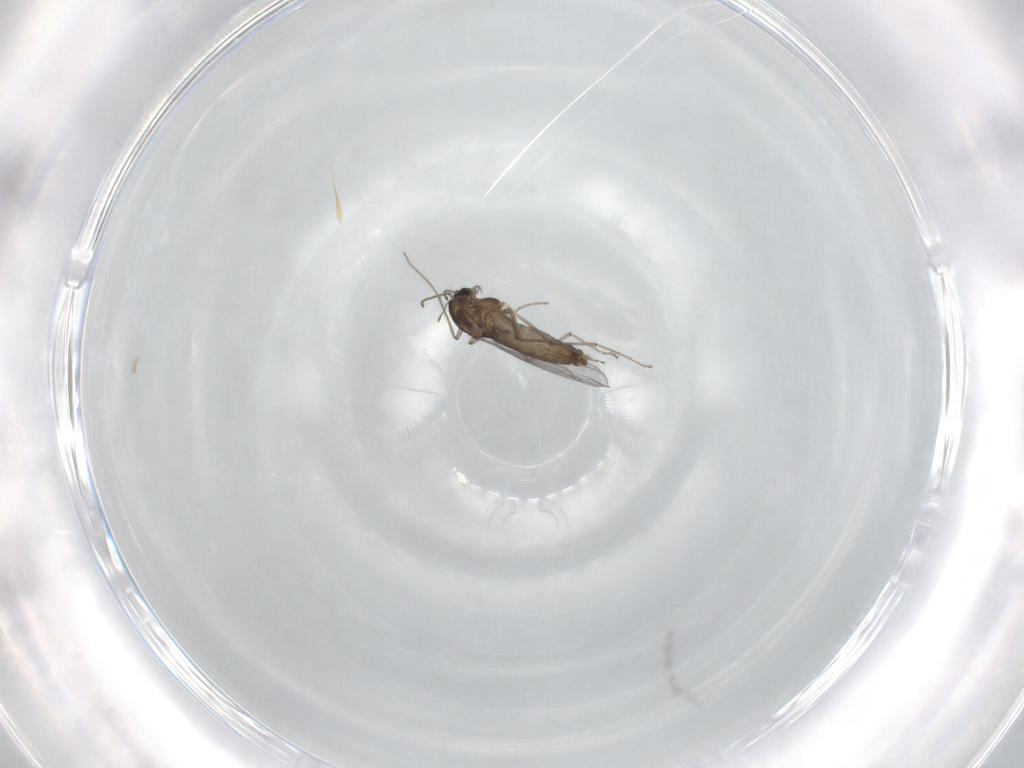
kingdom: Animalia
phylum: Arthropoda
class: Insecta
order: Diptera
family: Chironomidae
